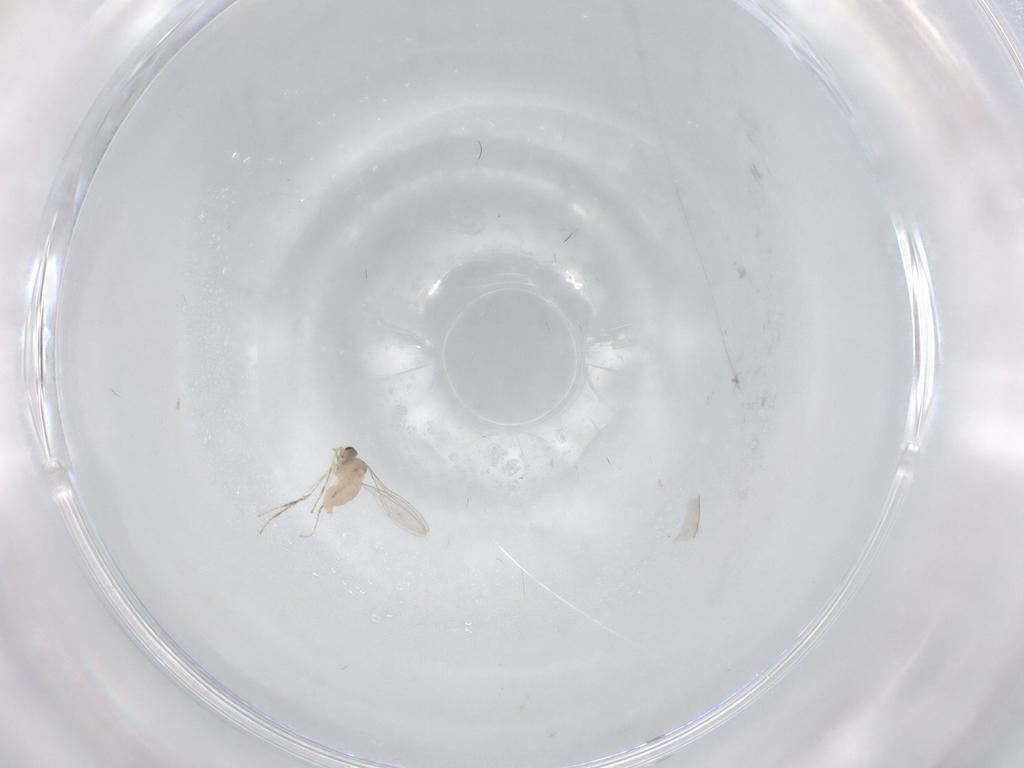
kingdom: Animalia
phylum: Arthropoda
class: Insecta
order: Diptera
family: Cecidomyiidae
